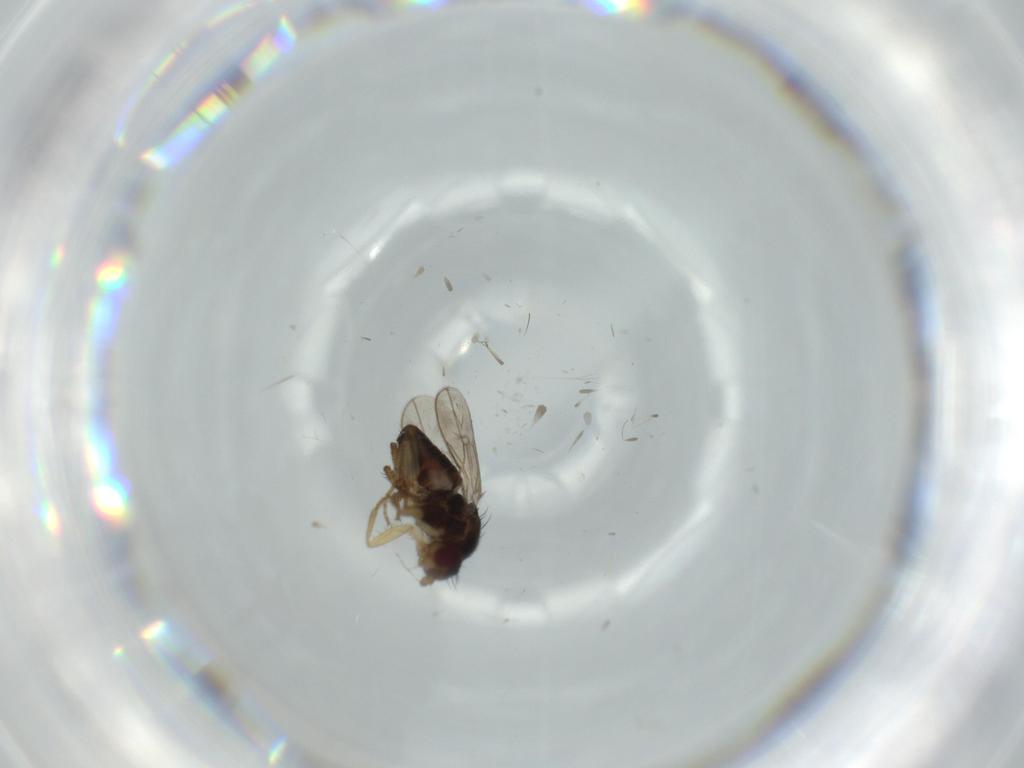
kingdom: Animalia
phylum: Arthropoda
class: Insecta
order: Diptera
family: Sphaeroceridae
